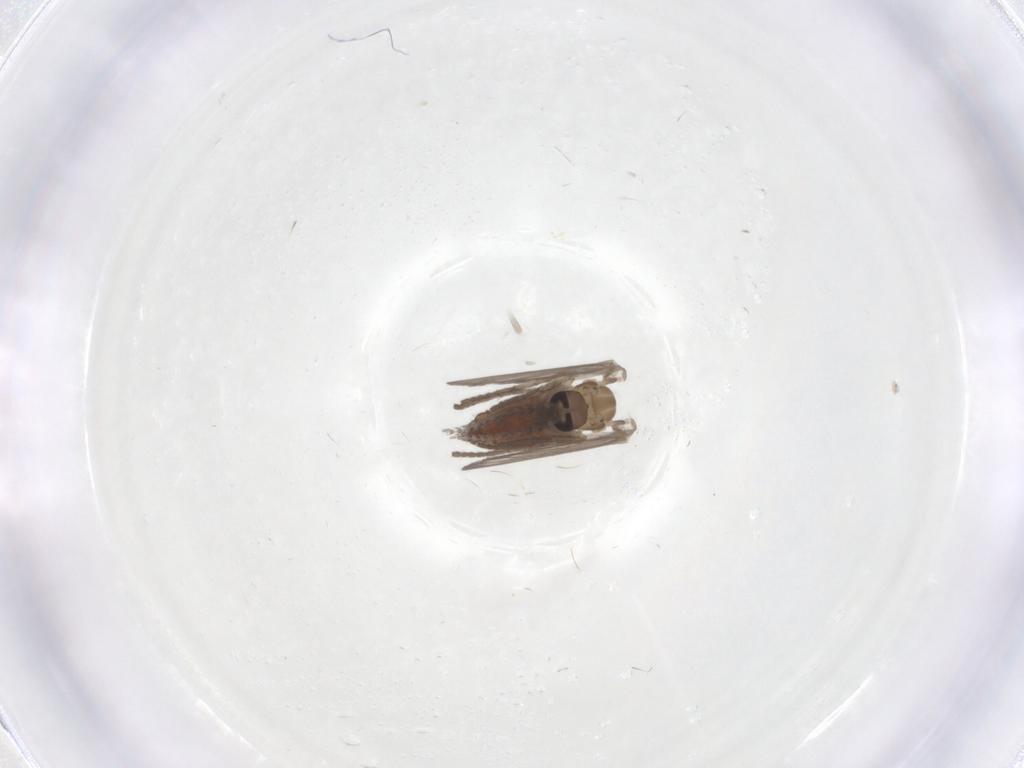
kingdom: Animalia
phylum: Arthropoda
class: Insecta
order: Diptera
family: Psychodidae
